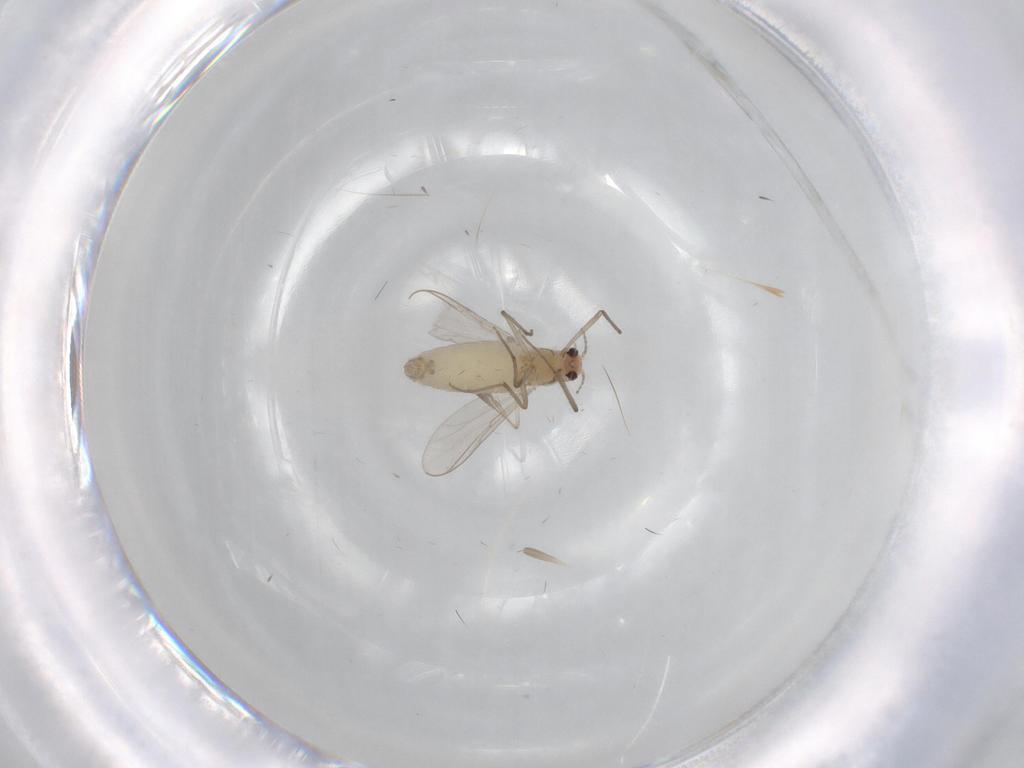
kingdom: Animalia
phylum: Arthropoda
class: Insecta
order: Diptera
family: Chironomidae
